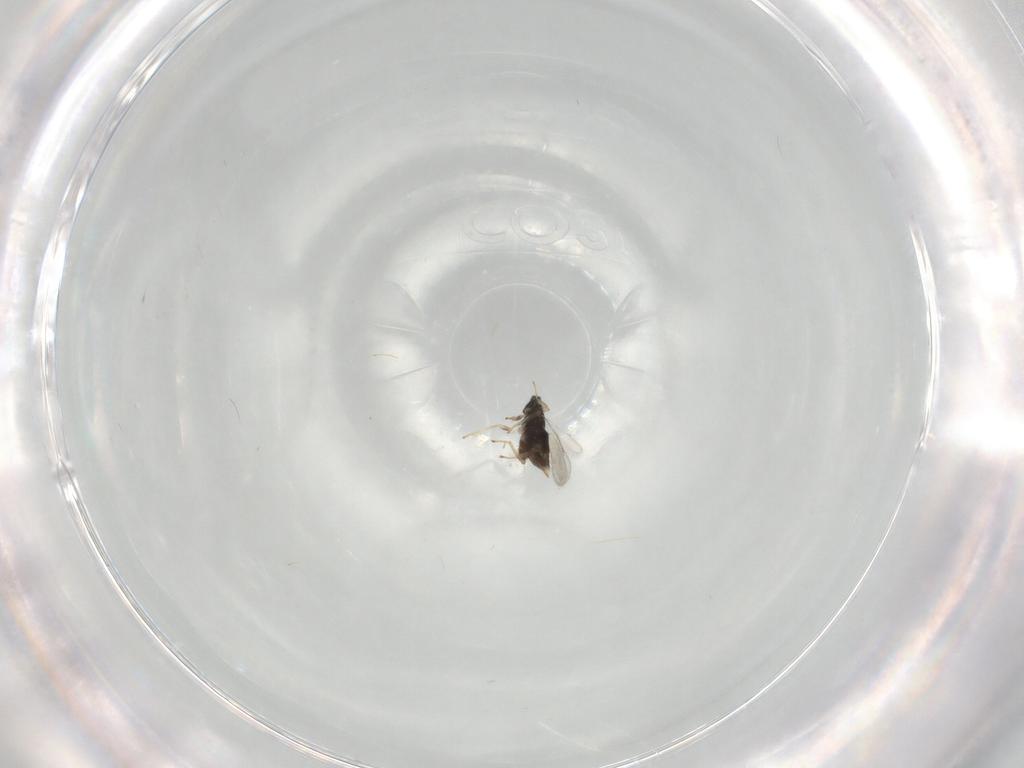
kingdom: Animalia
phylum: Arthropoda
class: Insecta
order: Hymenoptera
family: Aphelinidae
